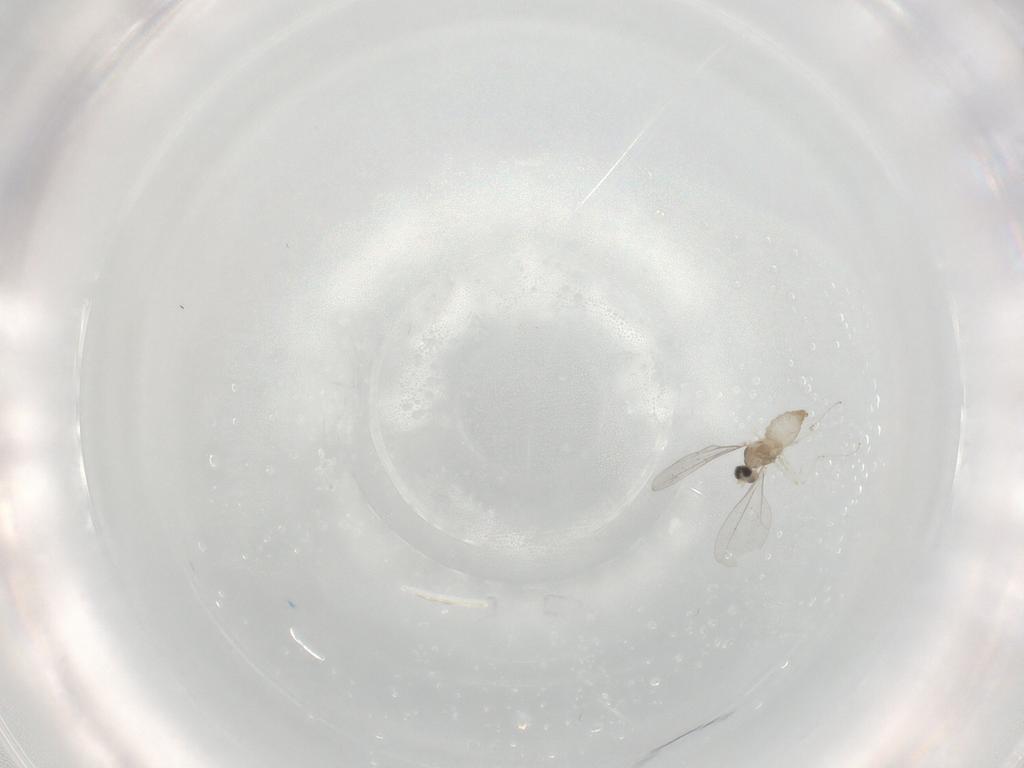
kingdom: Animalia
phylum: Arthropoda
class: Insecta
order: Diptera
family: Cecidomyiidae
